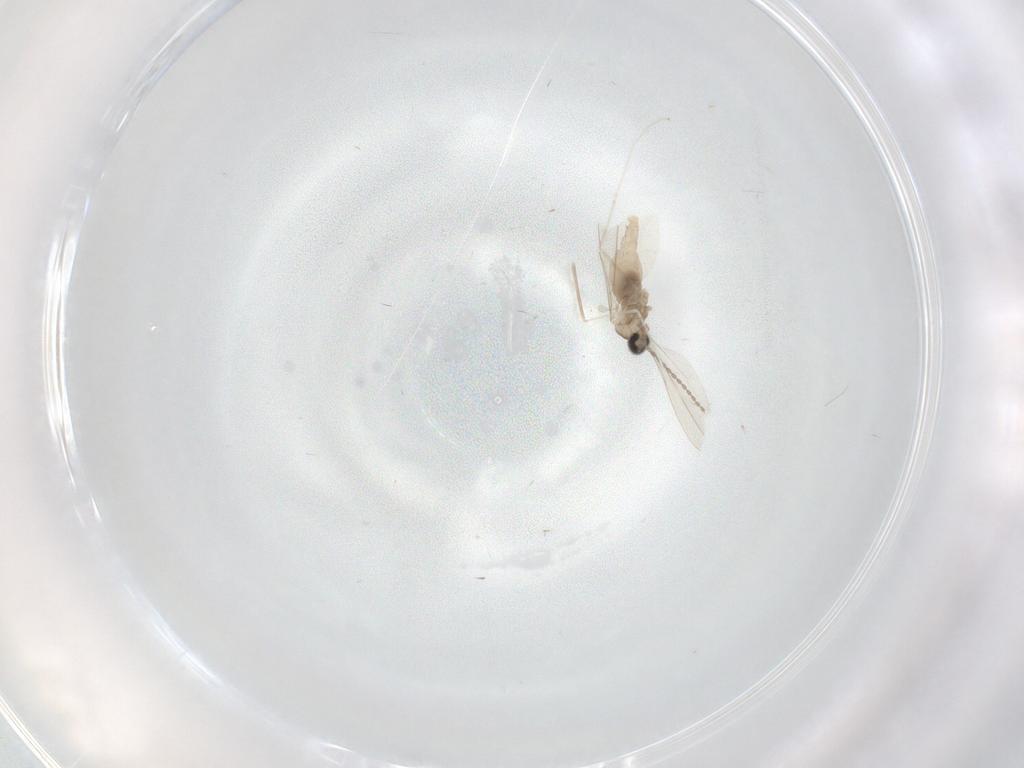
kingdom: Animalia
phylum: Arthropoda
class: Insecta
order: Diptera
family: Cecidomyiidae
